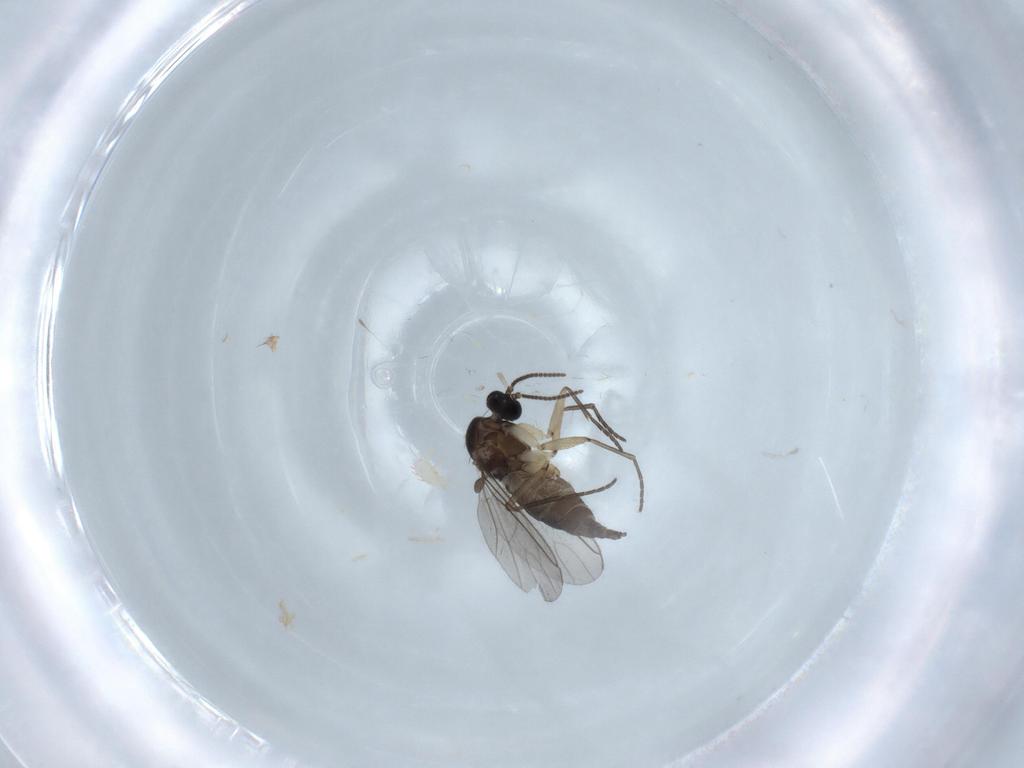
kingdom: Animalia
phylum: Arthropoda
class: Insecta
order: Diptera
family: Sciaridae
